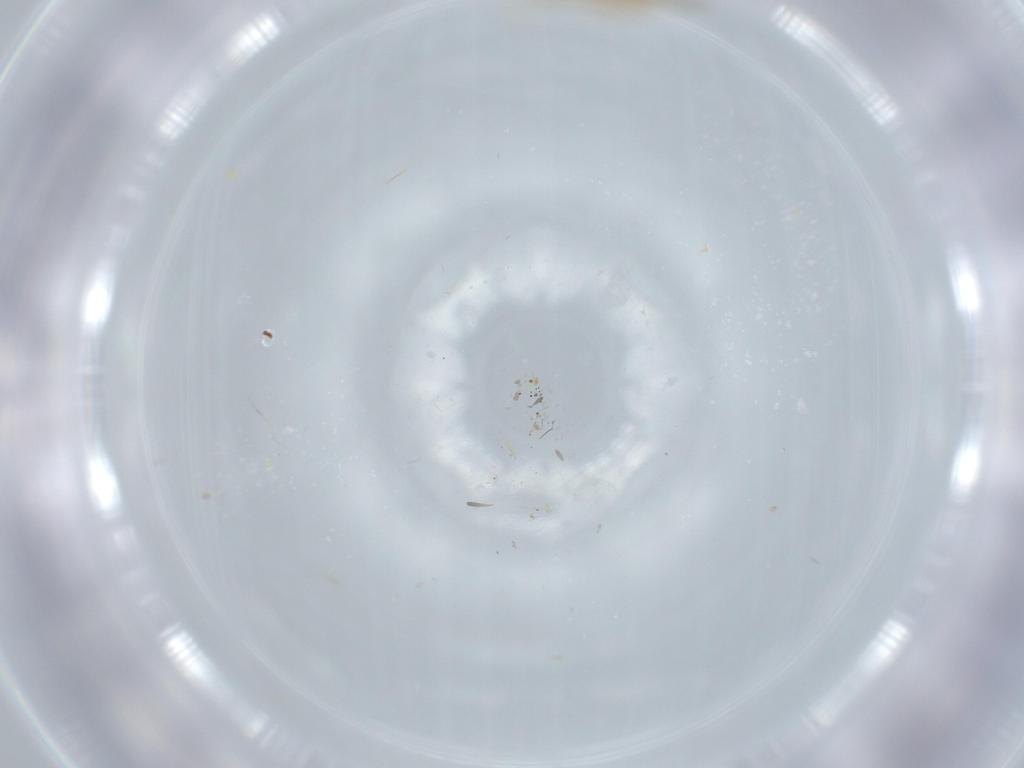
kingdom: Animalia
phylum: Arthropoda
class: Insecta
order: Diptera
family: Cecidomyiidae
